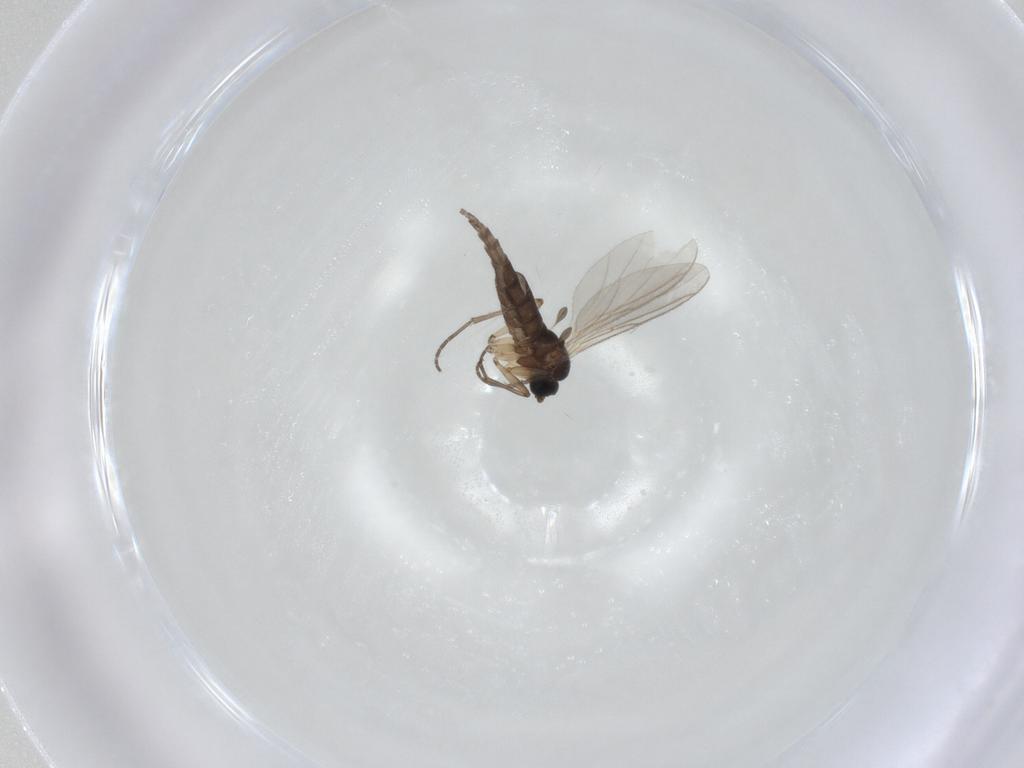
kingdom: Animalia
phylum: Arthropoda
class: Insecta
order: Diptera
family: Sciaridae
